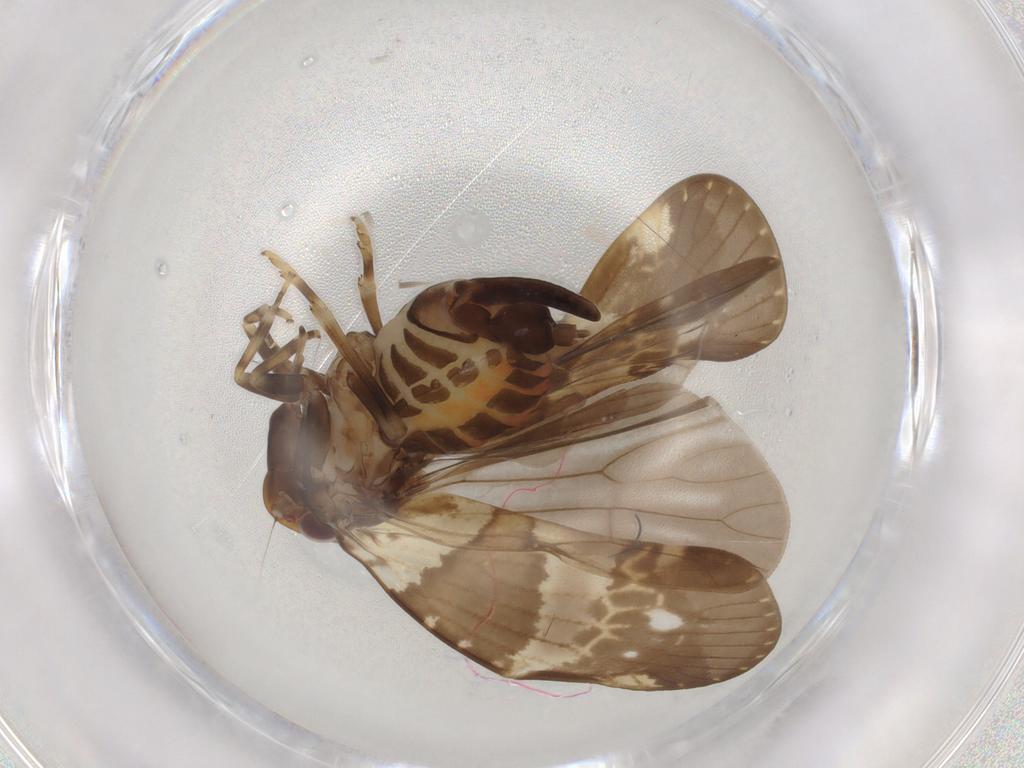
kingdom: Animalia
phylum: Arthropoda
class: Insecta
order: Hemiptera
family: Cixiidae
